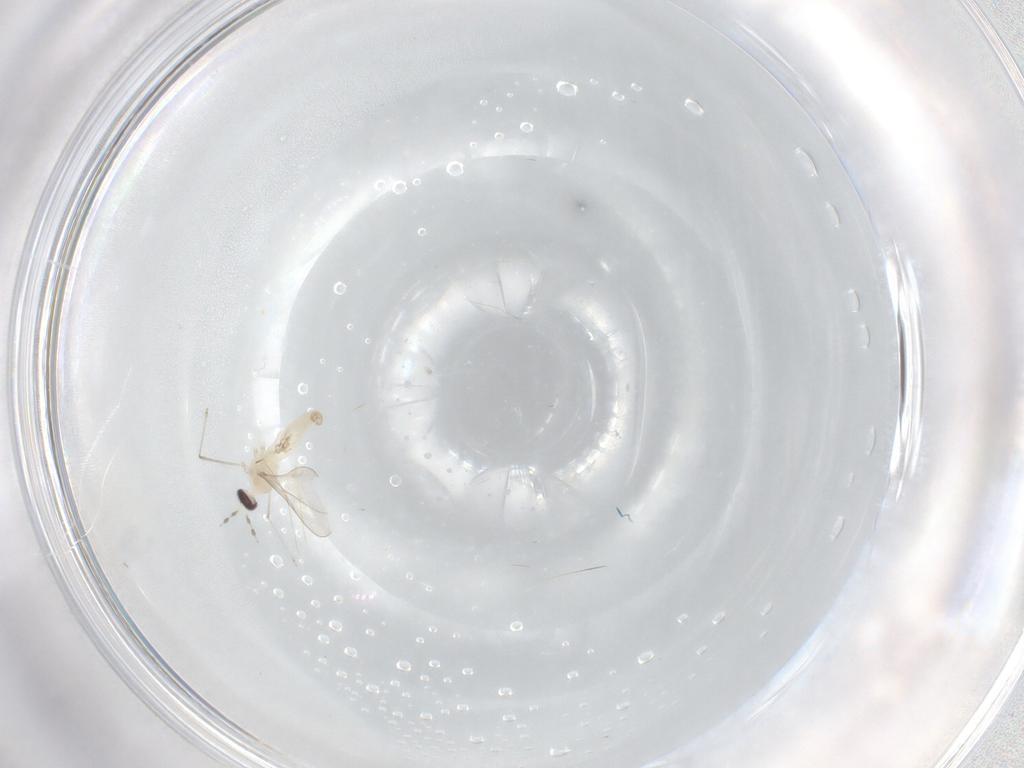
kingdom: Animalia
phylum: Arthropoda
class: Insecta
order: Diptera
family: Cecidomyiidae
